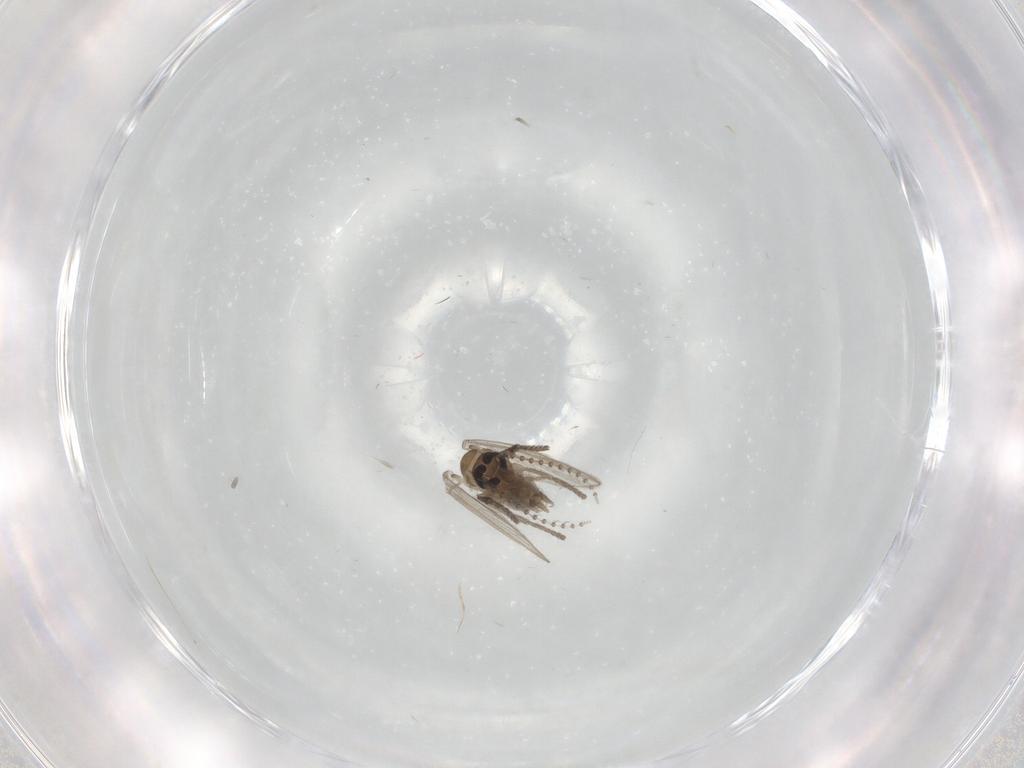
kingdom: Animalia
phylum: Arthropoda
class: Insecta
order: Diptera
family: Psychodidae
